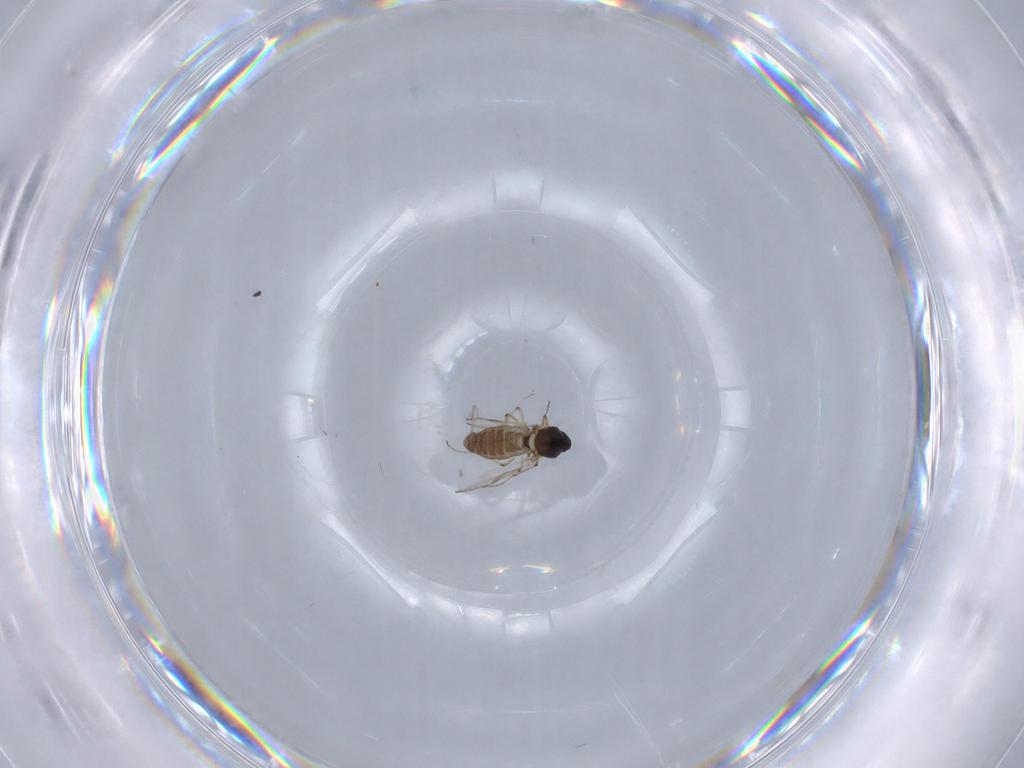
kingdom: Animalia
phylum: Arthropoda
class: Insecta
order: Diptera
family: Ceratopogonidae
